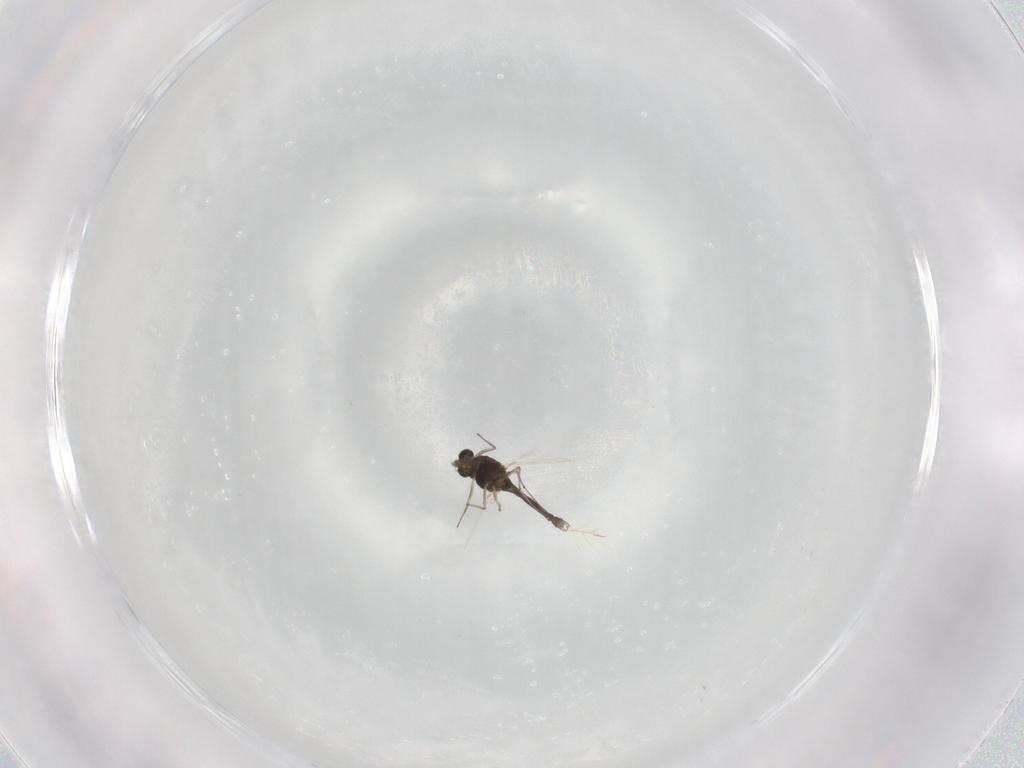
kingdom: Animalia
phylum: Arthropoda
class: Insecta
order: Diptera
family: Chironomidae
